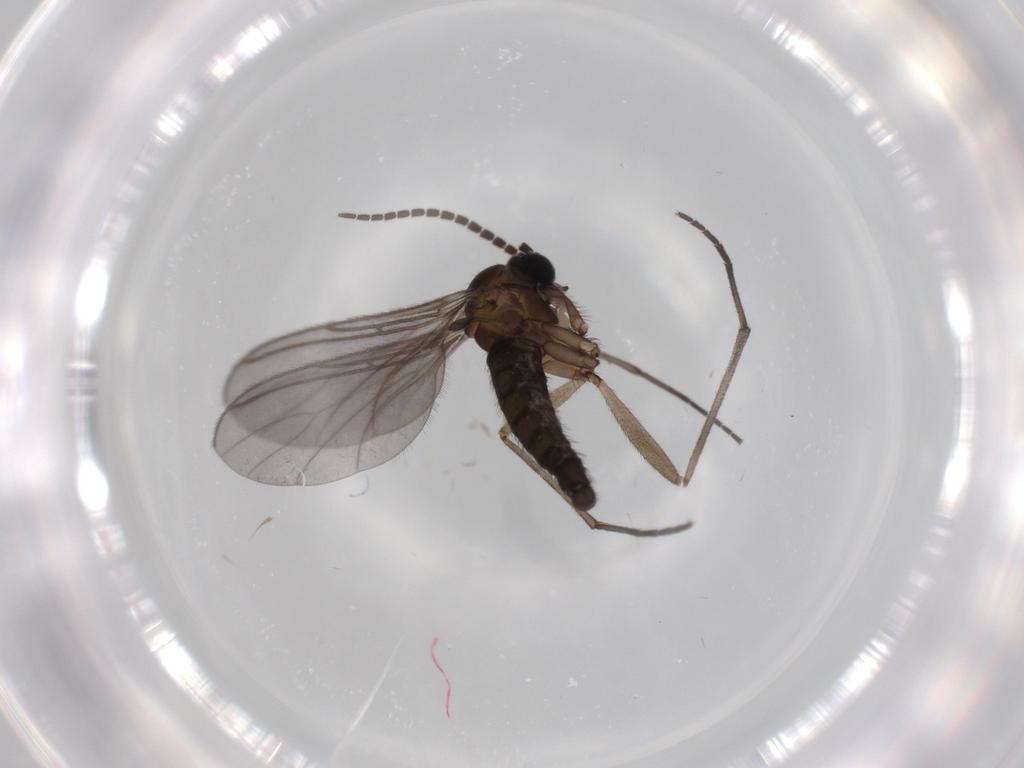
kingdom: Animalia
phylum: Arthropoda
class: Insecta
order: Diptera
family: Sciaridae
